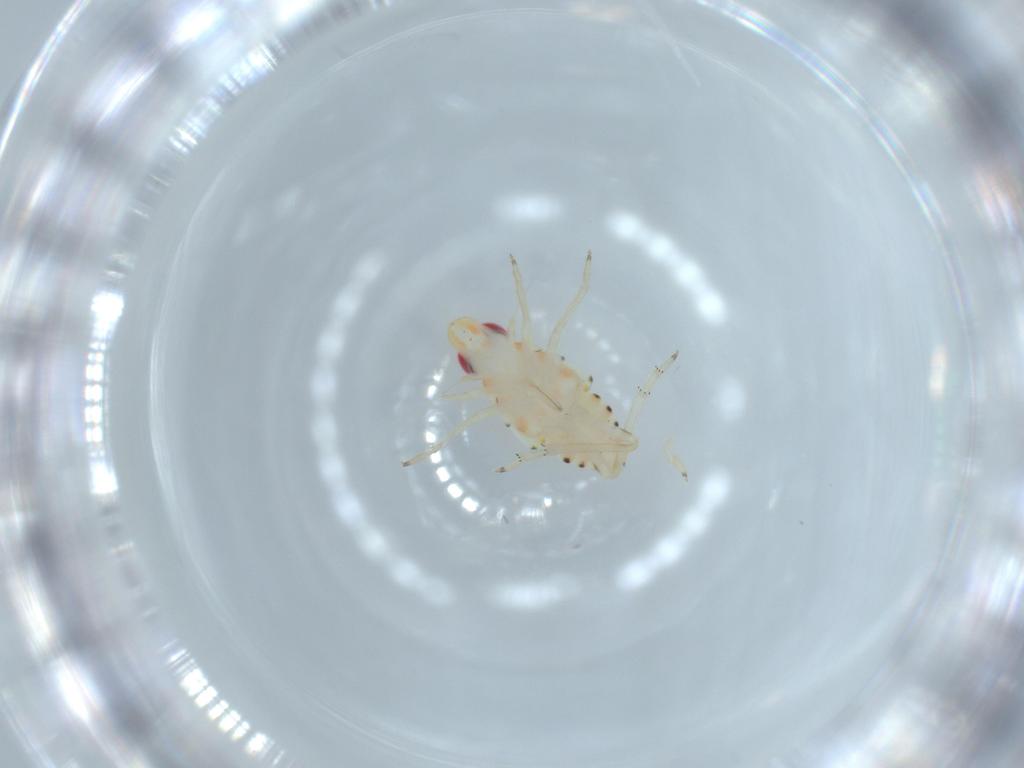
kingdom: Animalia
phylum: Arthropoda
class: Insecta
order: Hemiptera
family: Tropiduchidae
